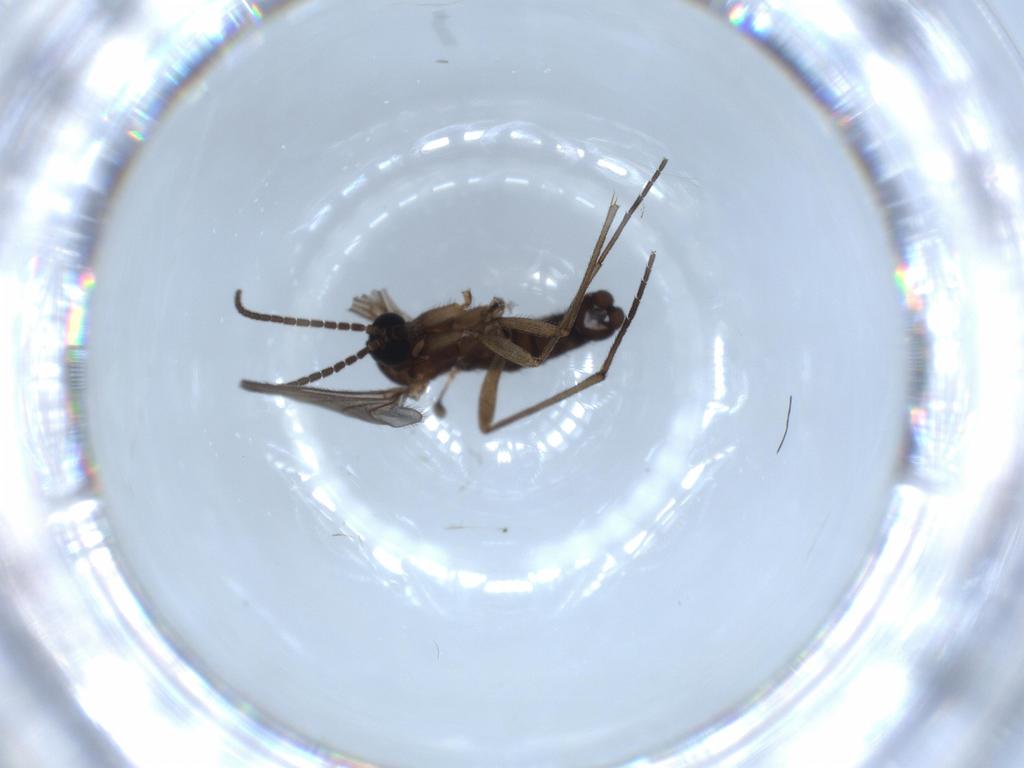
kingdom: Animalia
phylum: Arthropoda
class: Insecta
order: Diptera
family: Sciaridae
